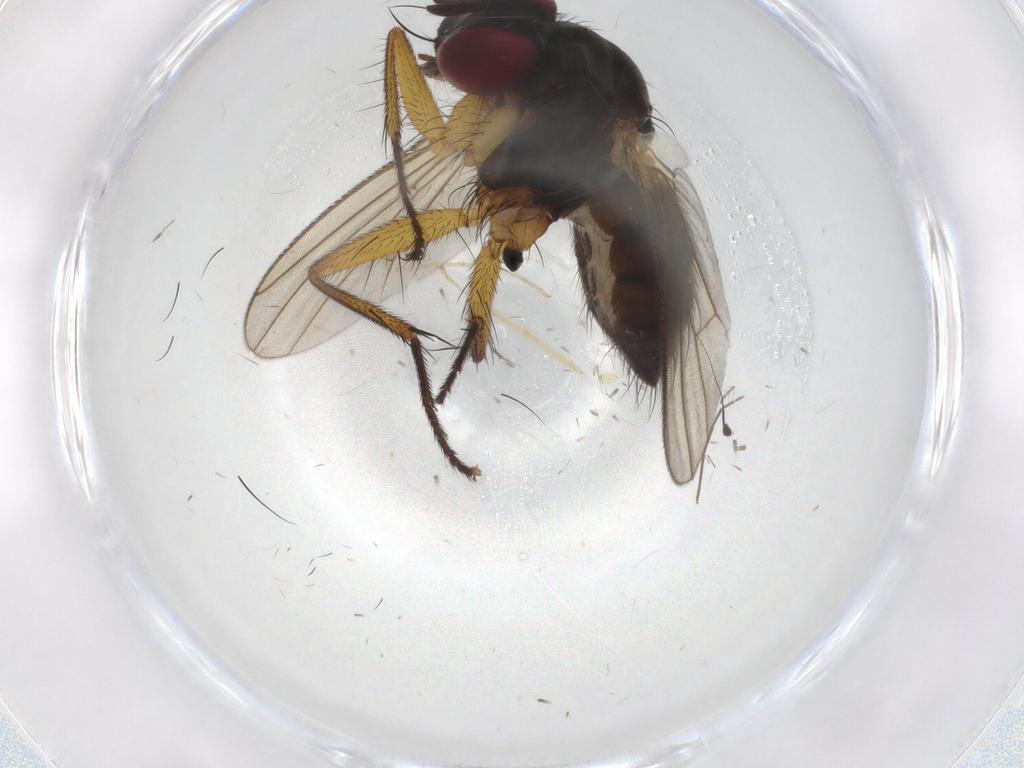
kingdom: Animalia
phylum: Arthropoda
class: Insecta
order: Diptera
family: Muscidae
